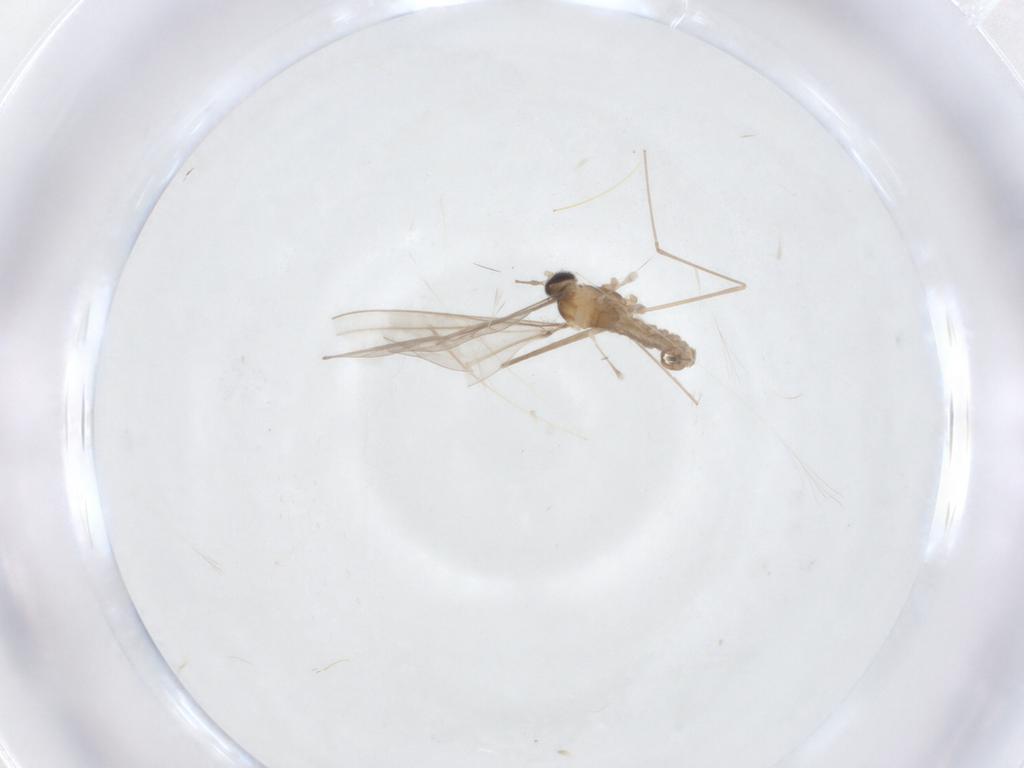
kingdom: Animalia
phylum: Arthropoda
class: Insecta
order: Diptera
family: Cecidomyiidae
